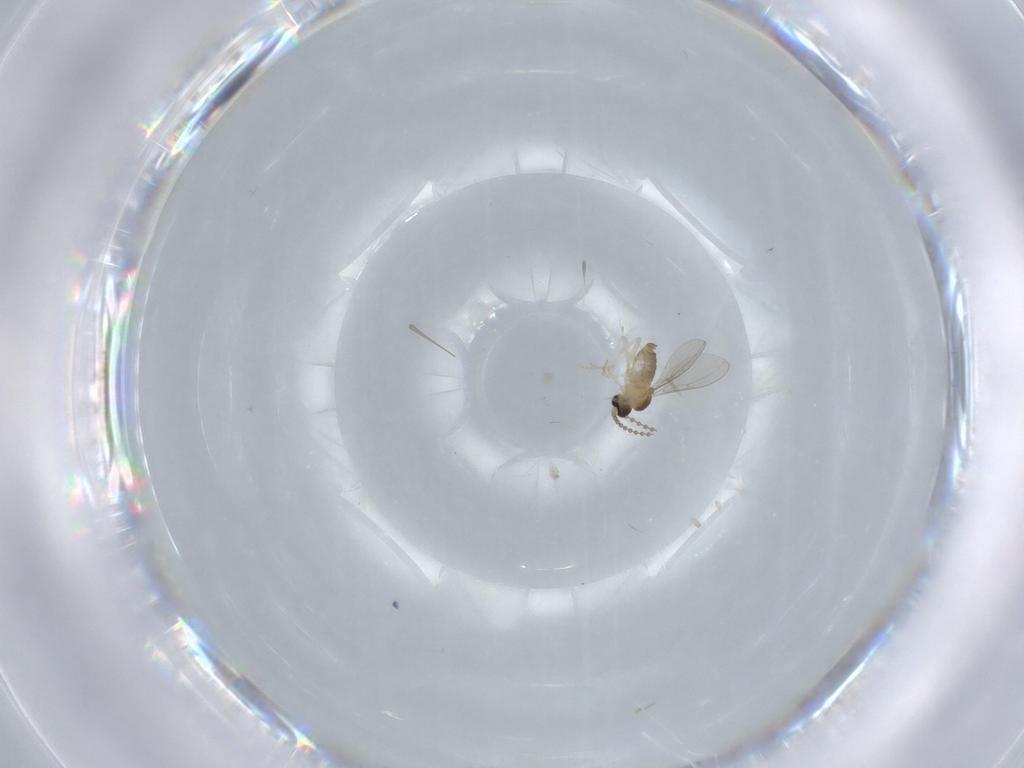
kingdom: Animalia
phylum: Arthropoda
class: Insecta
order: Diptera
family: Cecidomyiidae
